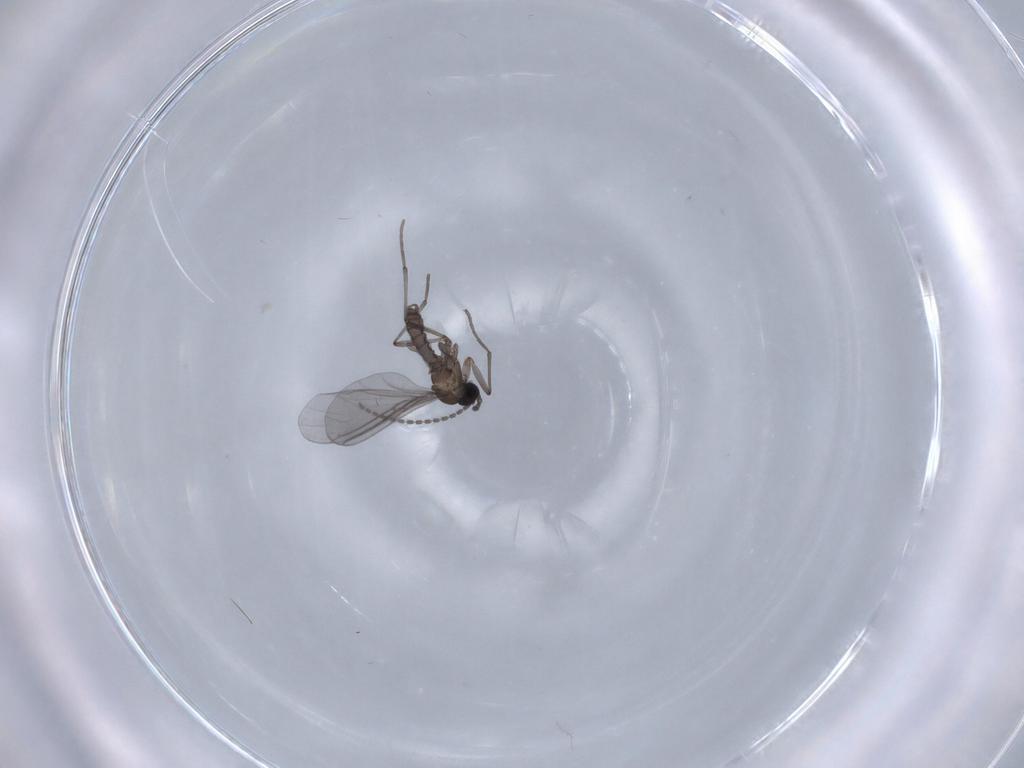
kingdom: Animalia
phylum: Arthropoda
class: Insecta
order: Diptera
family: Sciaridae
